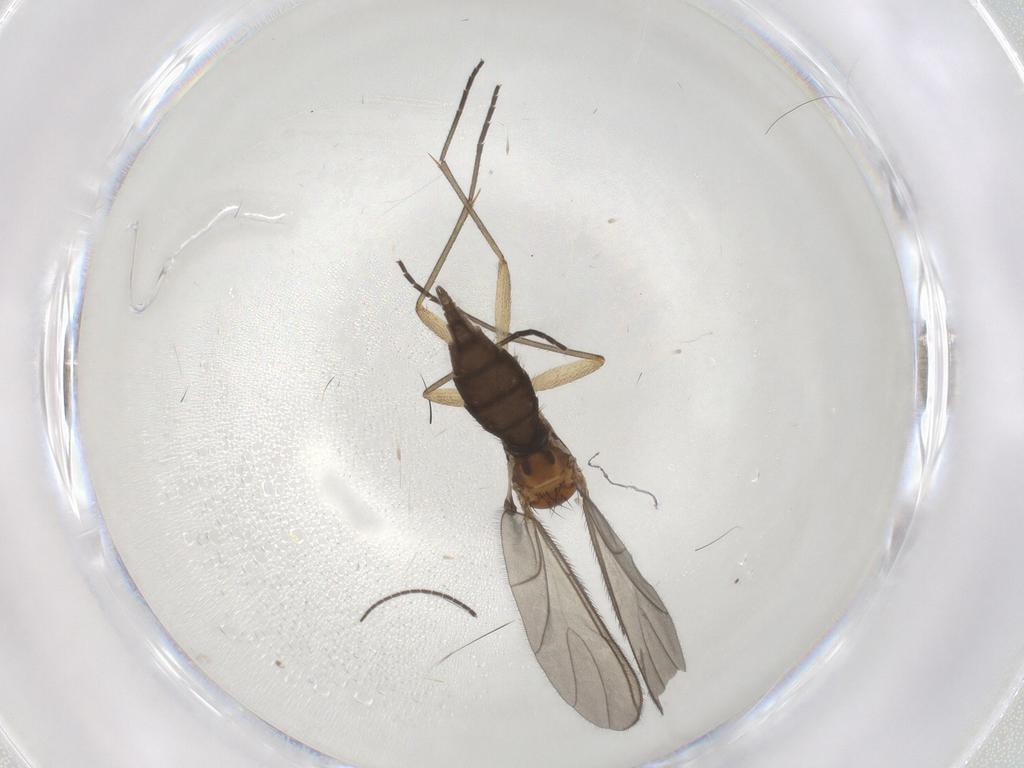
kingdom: Animalia
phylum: Arthropoda
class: Insecta
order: Diptera
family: Sciaridae
